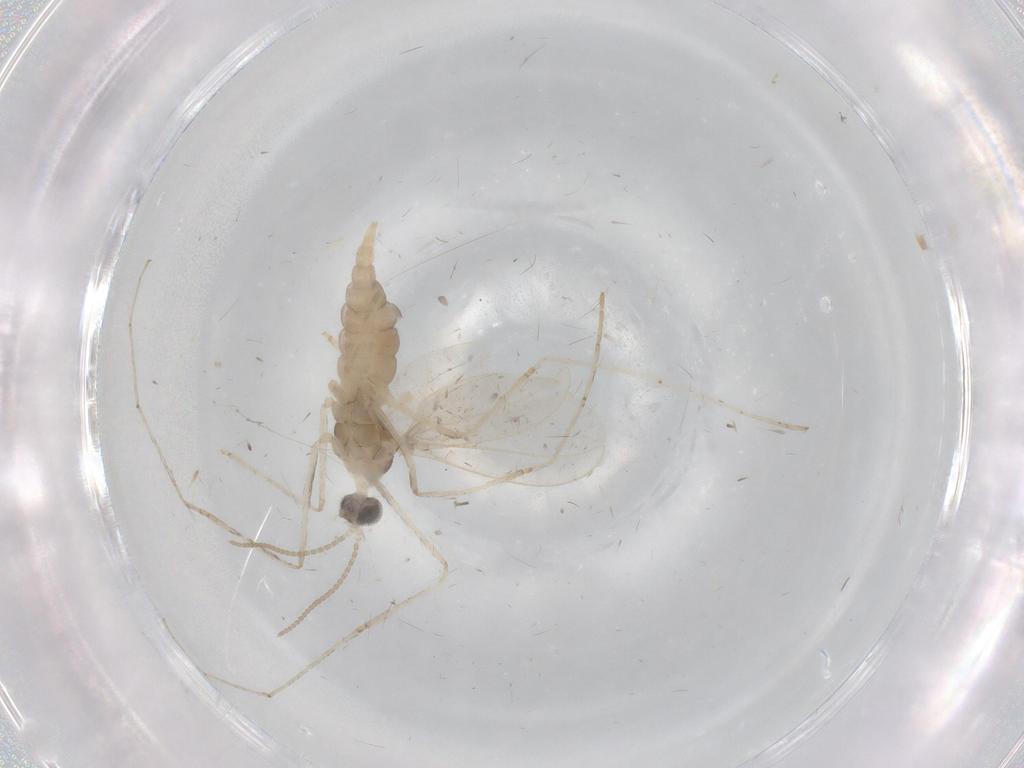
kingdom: Animalia
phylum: Arthropoda
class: Insecta
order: Diptera
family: Cecidomyiidae
